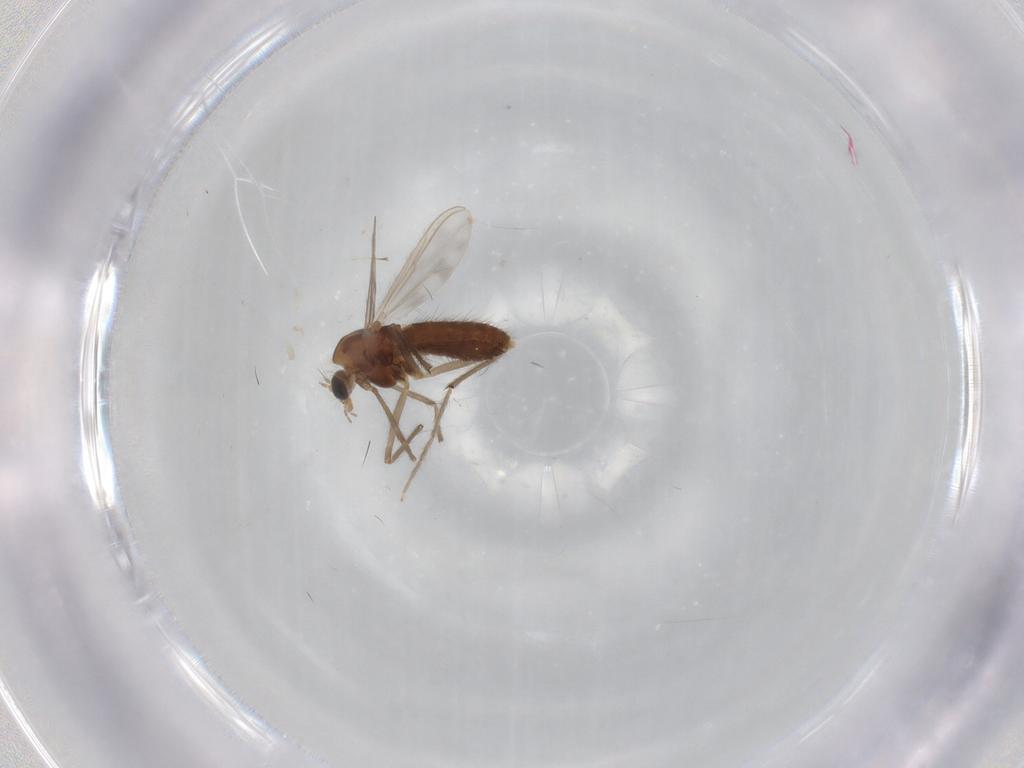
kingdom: Animalia
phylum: Arthropoda
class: Insecta
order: Diptera
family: Chironomidae
